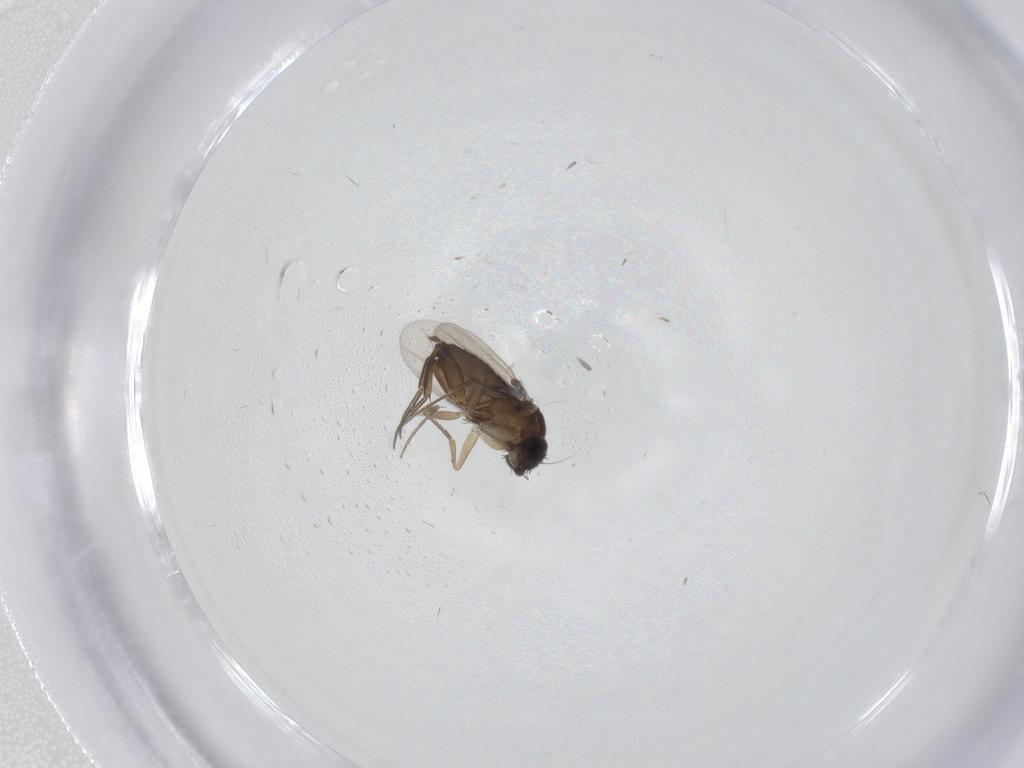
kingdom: Animalia
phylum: Arthropoda
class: Insecta
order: Diptera
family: Phoridae
